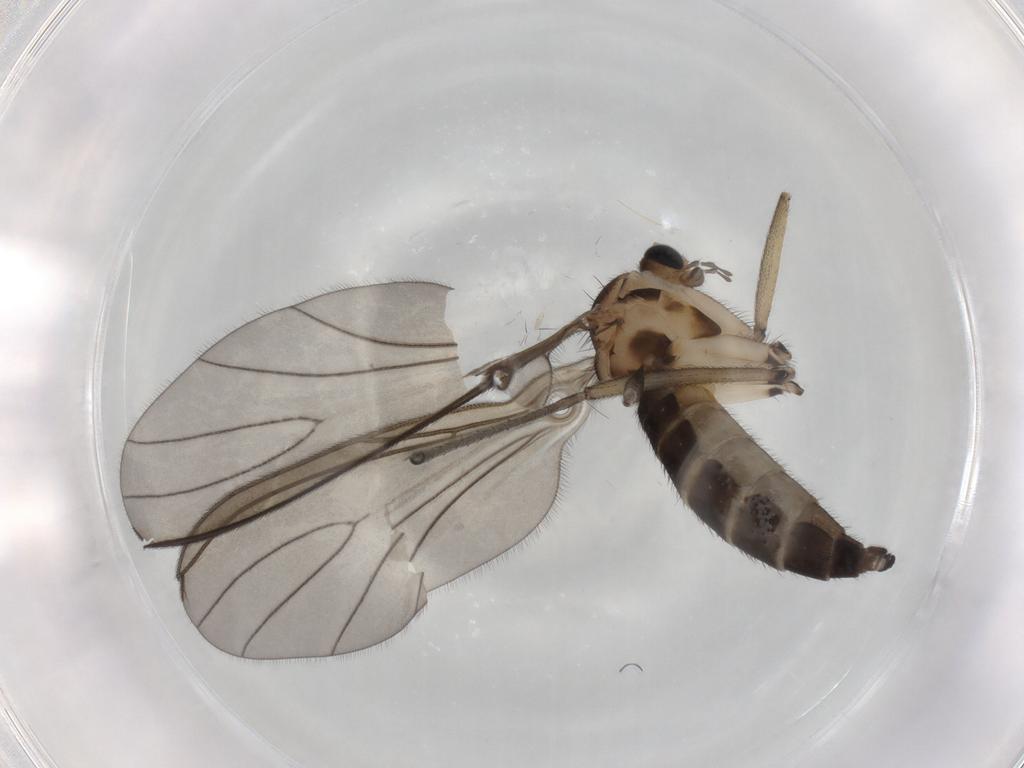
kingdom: Animalia
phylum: Arthropoda
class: Insecta
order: Diptera
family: Sciaridae
